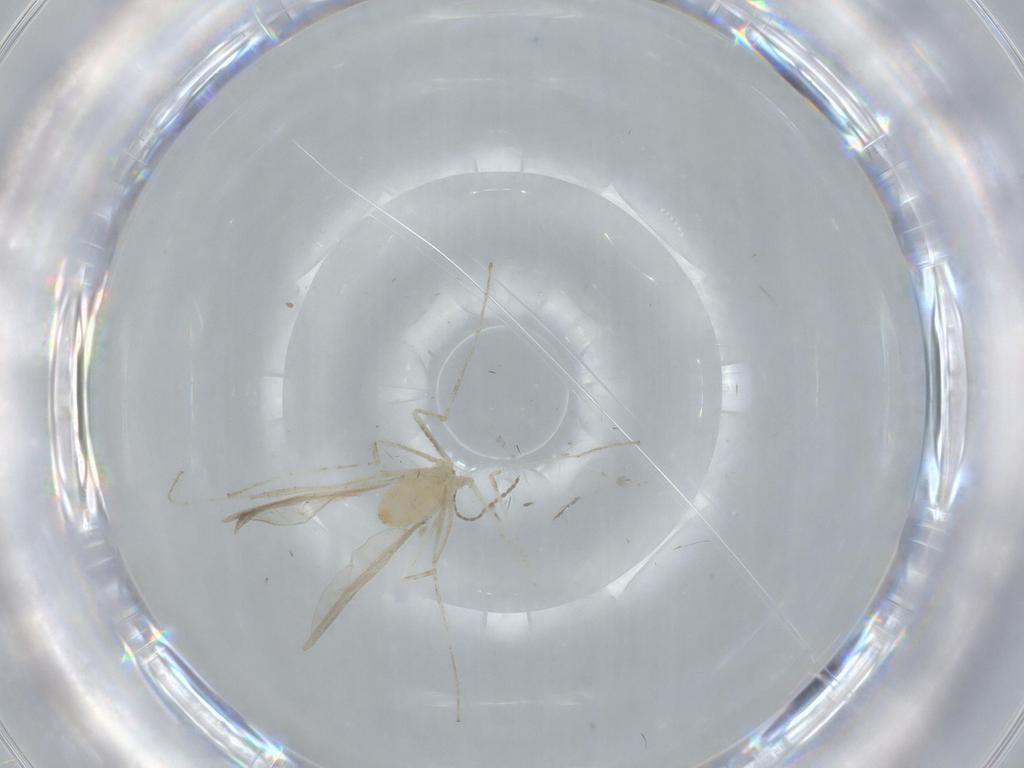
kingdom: Animalia
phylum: Arthropoda
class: Insecta
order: Diptera
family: Cecidomyiidae
